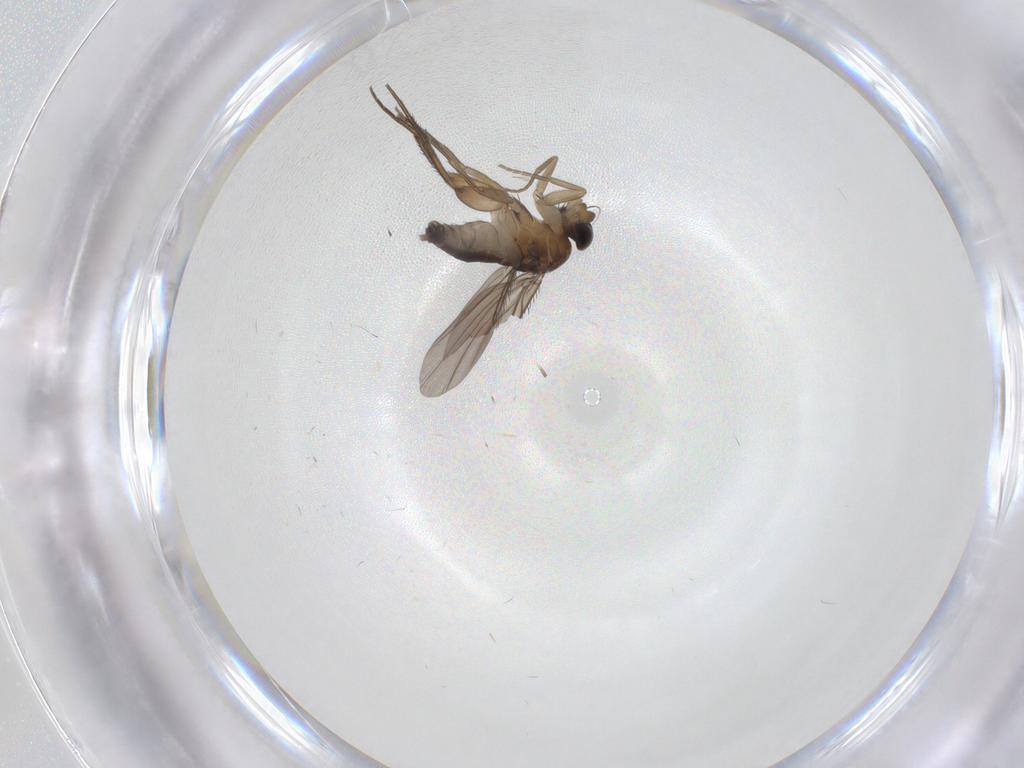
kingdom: Animalia
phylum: Arthropoda
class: Insecta
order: Diptera
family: Phoridae
